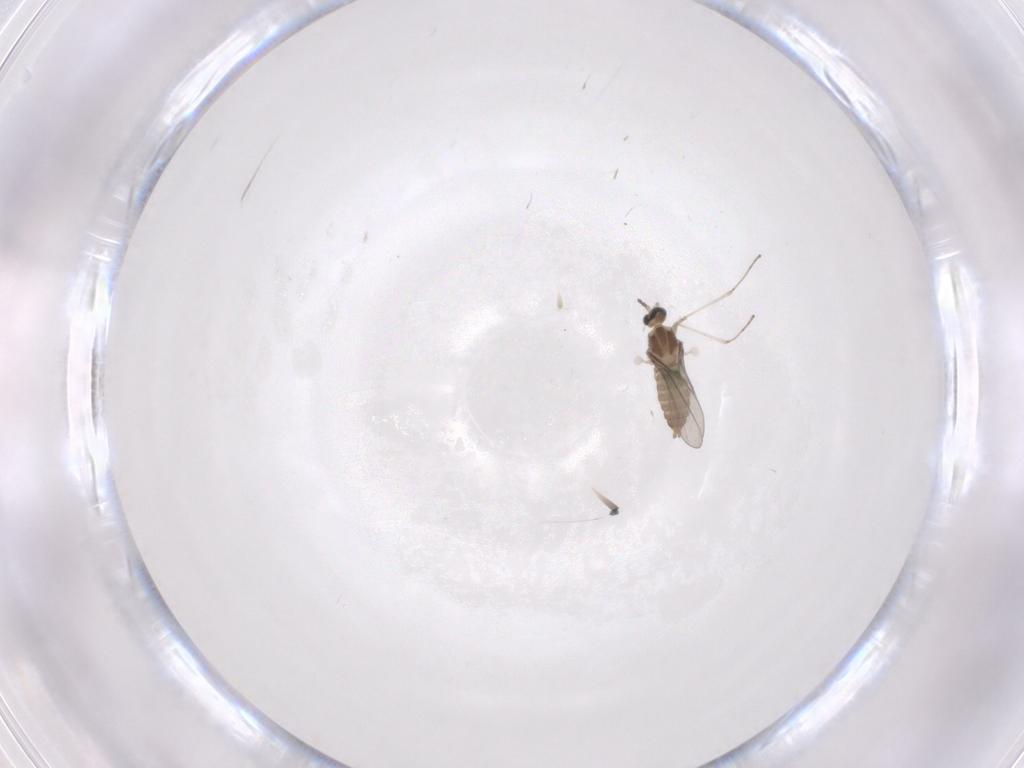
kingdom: Animalia
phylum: Arthropoda
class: Insecta
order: Diptera
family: Cecidomyiidae
